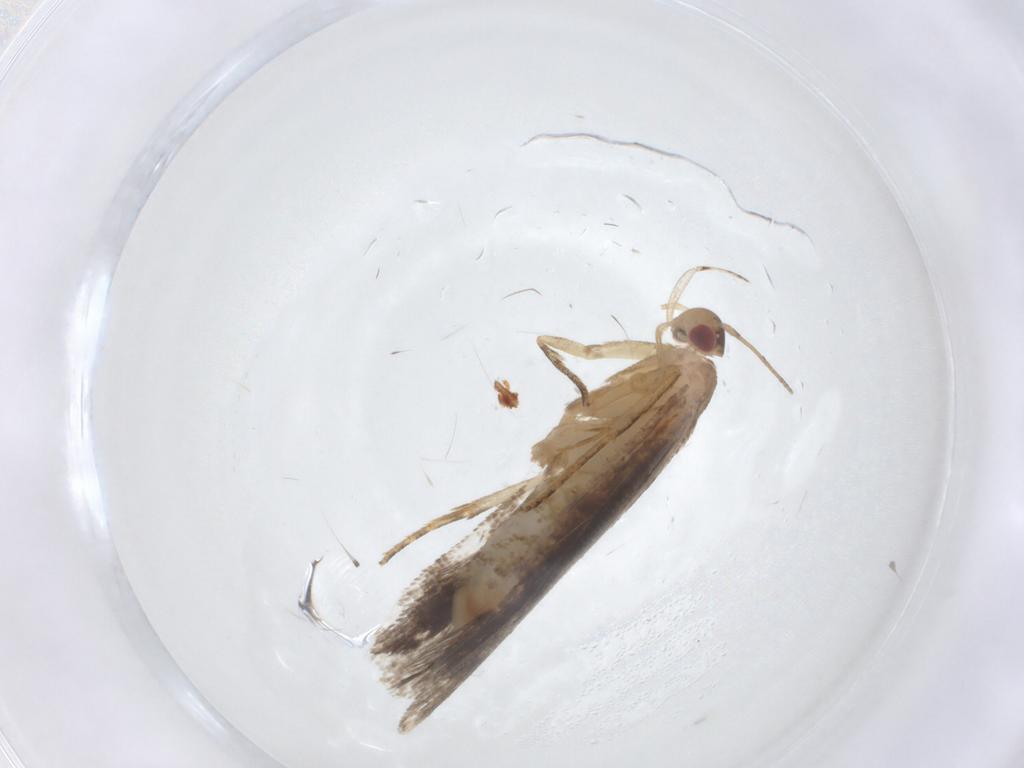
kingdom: Animalia
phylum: Arthropoda
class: Insecta
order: Lepidoptera
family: Gelechiidae
